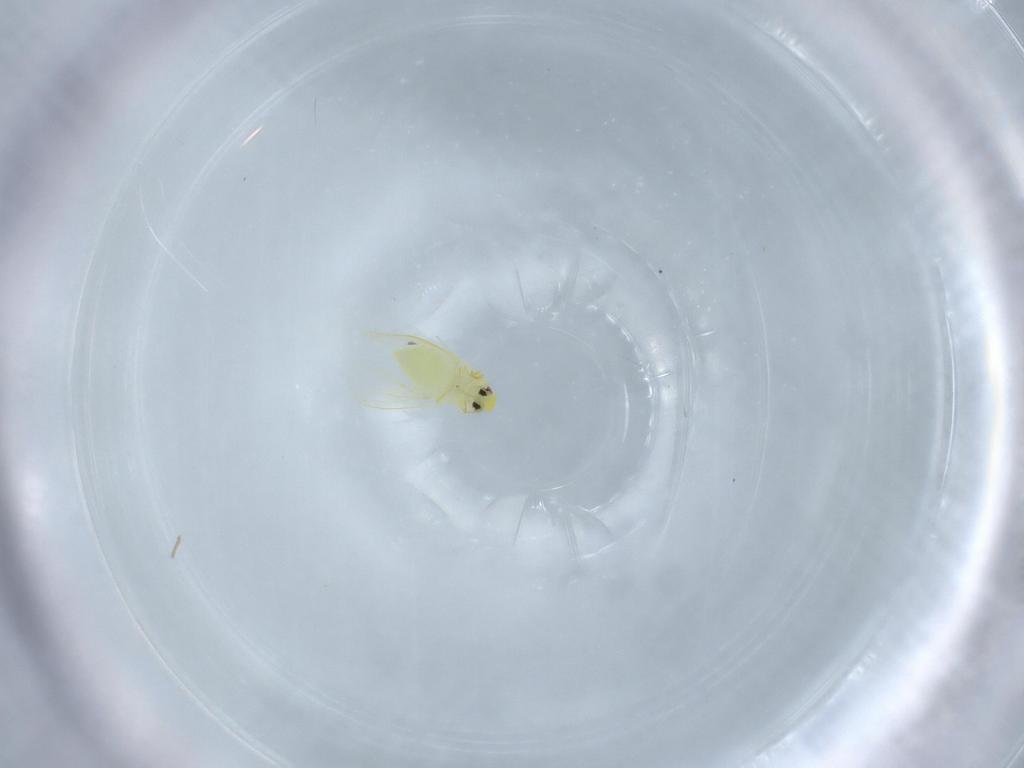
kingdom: Animalia
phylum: Arthropoda
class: Insecta
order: Hemiptera
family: Aleyrodidae
